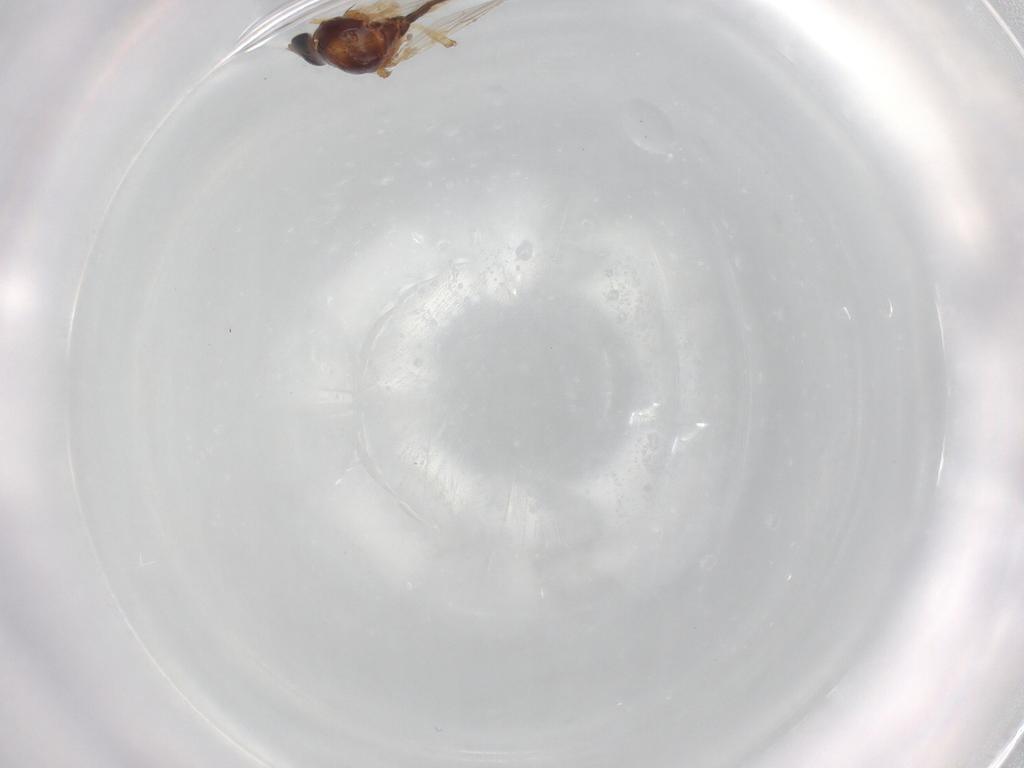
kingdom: Animalia
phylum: Arthropoda
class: Insecta
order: Diptera
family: Ceratopogonidae
